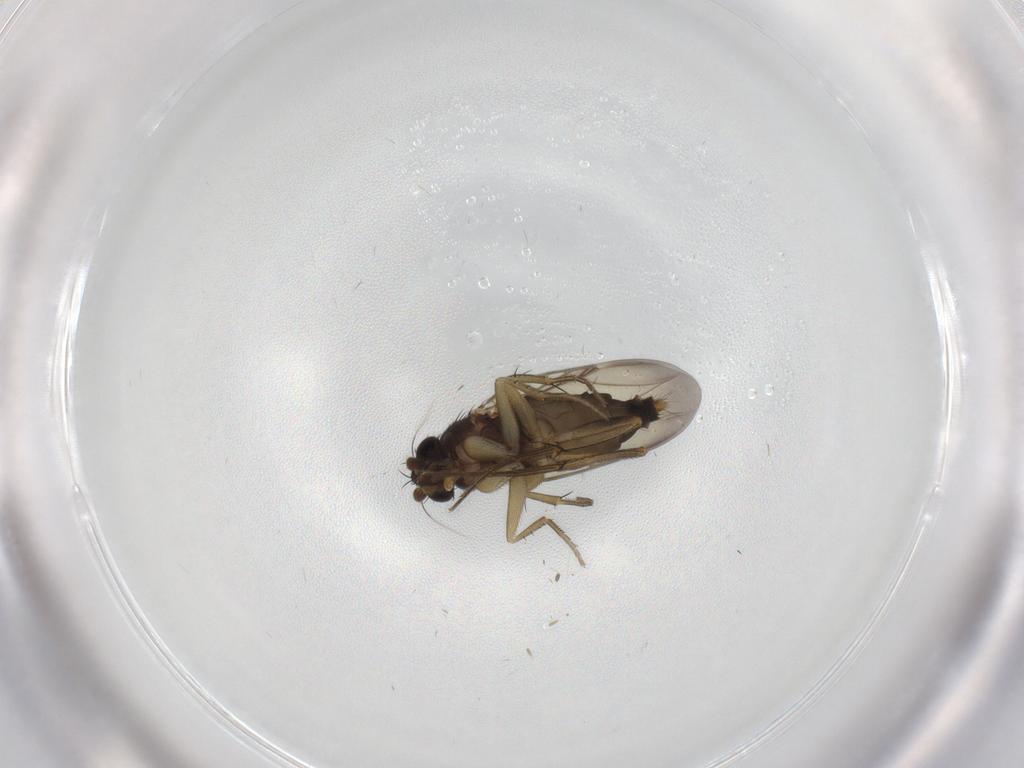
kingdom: Animalia
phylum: Arthropoda
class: Insecta
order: Diptera
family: Phoridae
